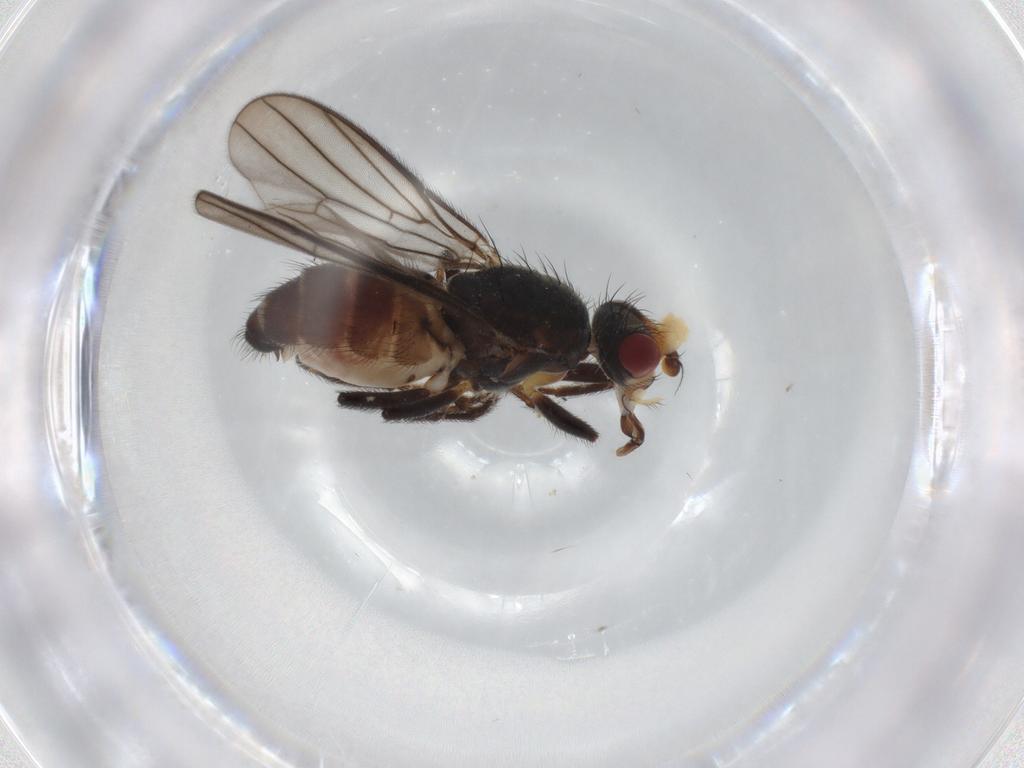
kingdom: Animalia
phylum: Arthropoda
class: Insecta
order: Diptera
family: Chloropidae
